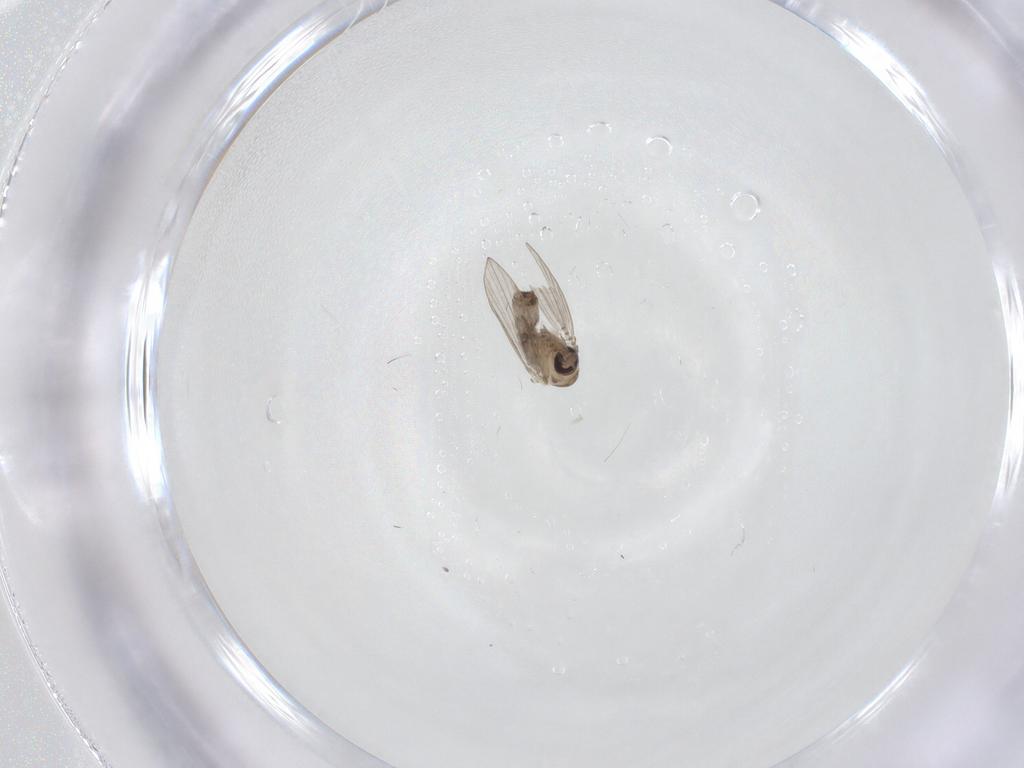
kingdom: Animalia
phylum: Arthropoda
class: Insecta
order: Diptera
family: Psychodidae
